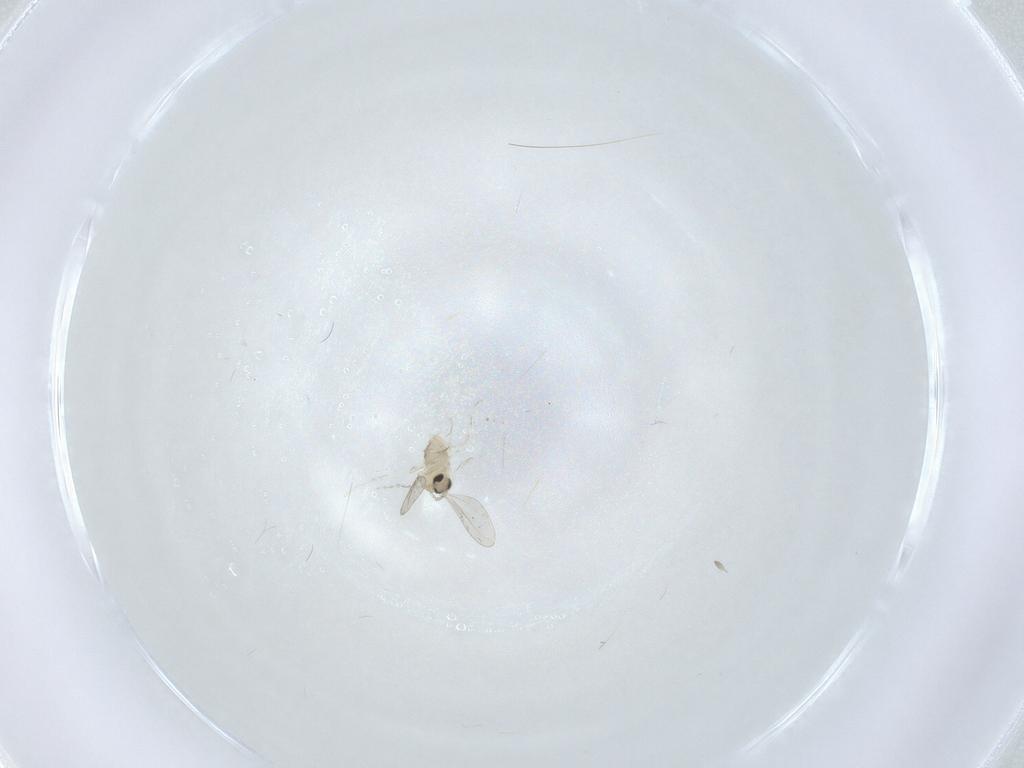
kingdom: Animalia
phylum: Arthropoda
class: Insecta
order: Diptera
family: Cecidomyiidae
